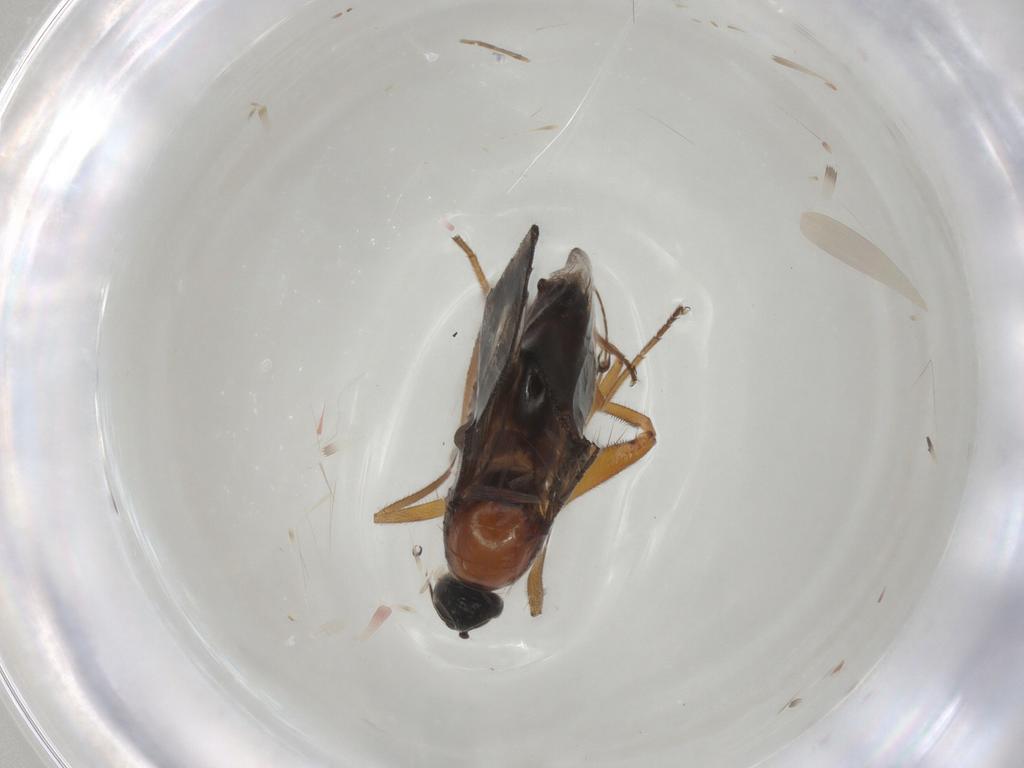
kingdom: Animalia
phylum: Arthropoda
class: Insecta
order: Diptera
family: Hybotidae
